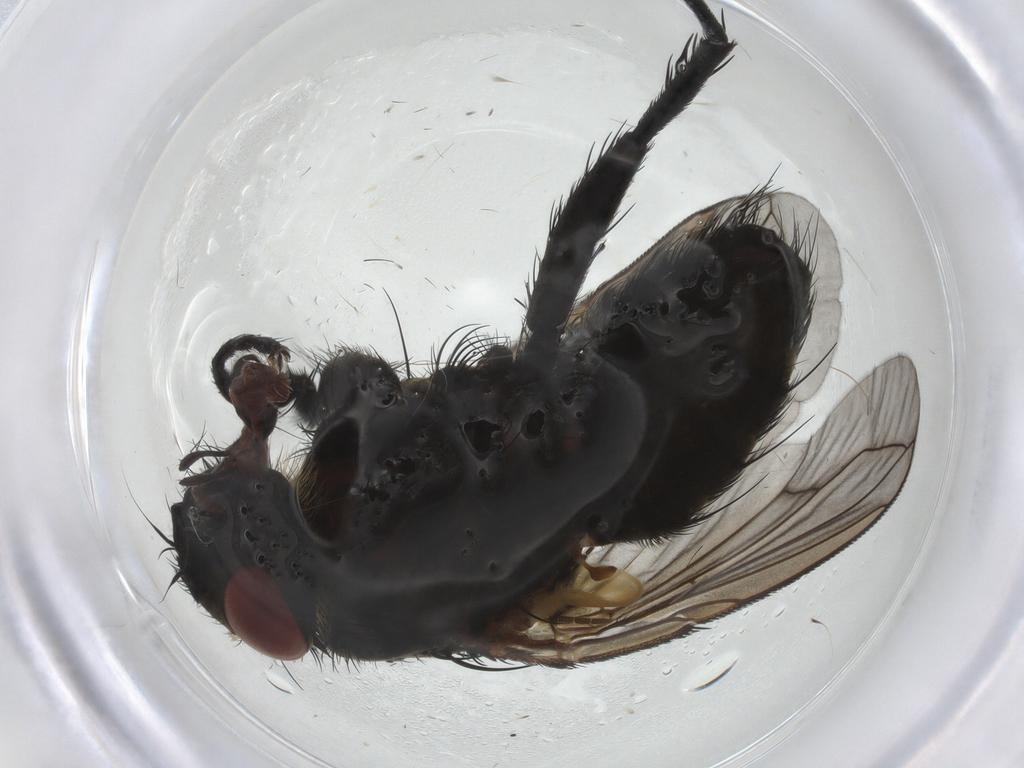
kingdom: Animalia
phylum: Arthropoda
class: Insecta
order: Diptera
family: Tachinidae
